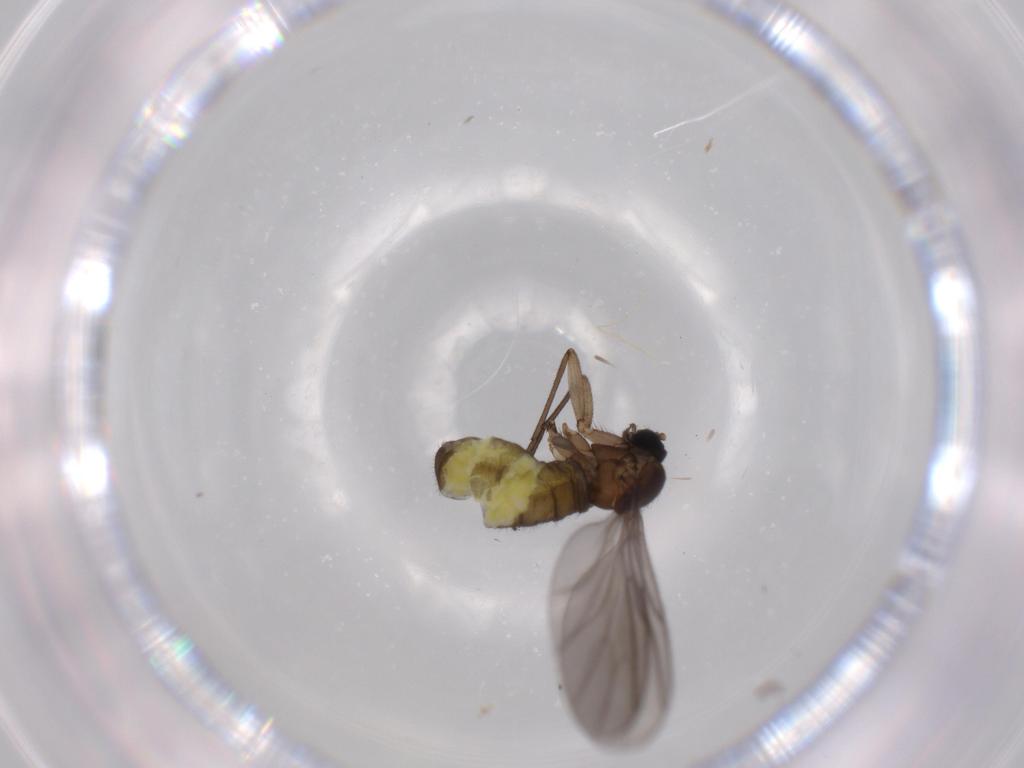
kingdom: Animalia
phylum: Arthropoda
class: Insecta
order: Diptera
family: Sciaridae
